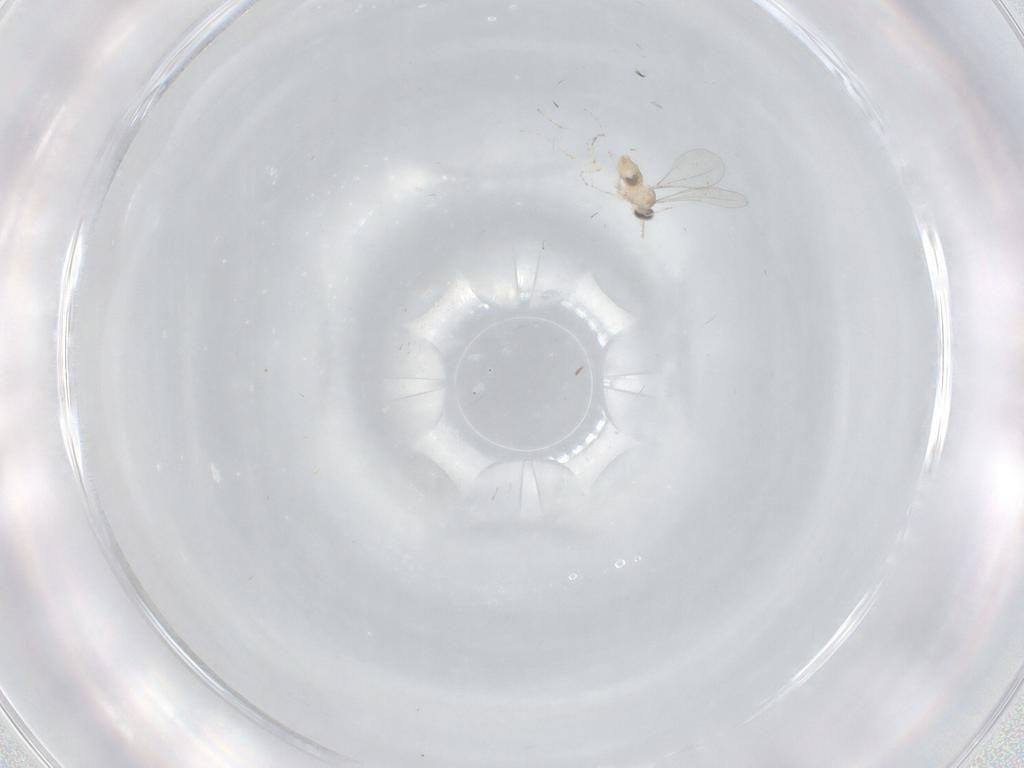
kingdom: Animalia
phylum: Arthropoda
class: Insecta
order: Diptera
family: Cecidomyiidae
